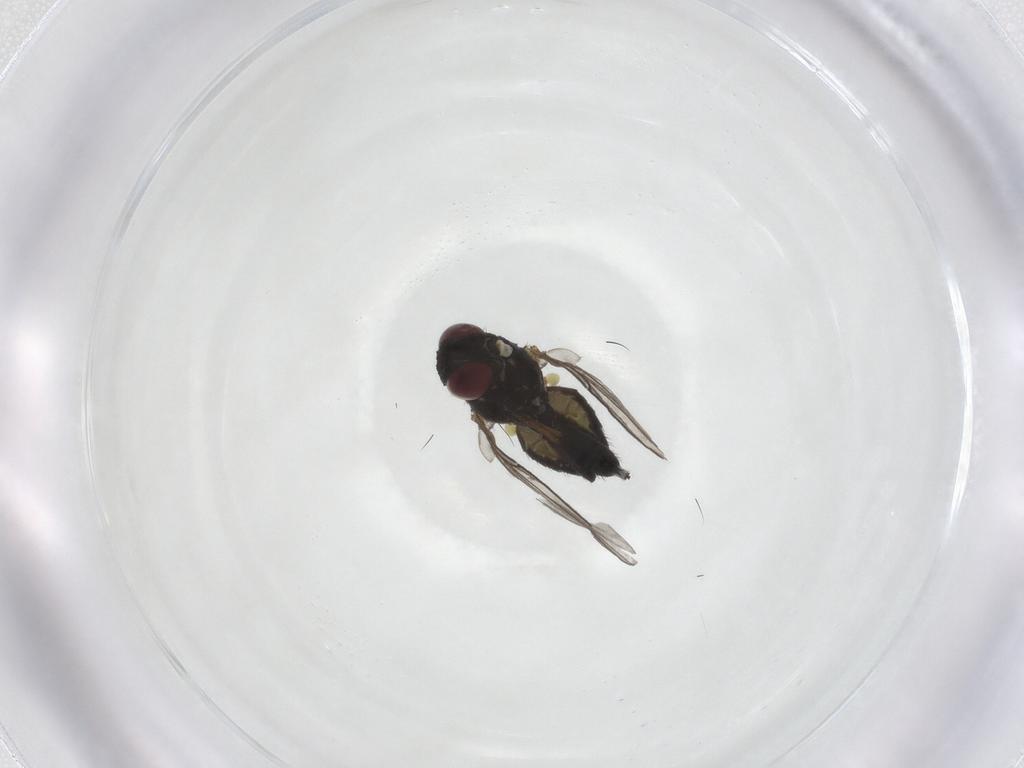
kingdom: Animalia
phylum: Arthropoda
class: Insecta
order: Diptera
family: Agromyzidae
